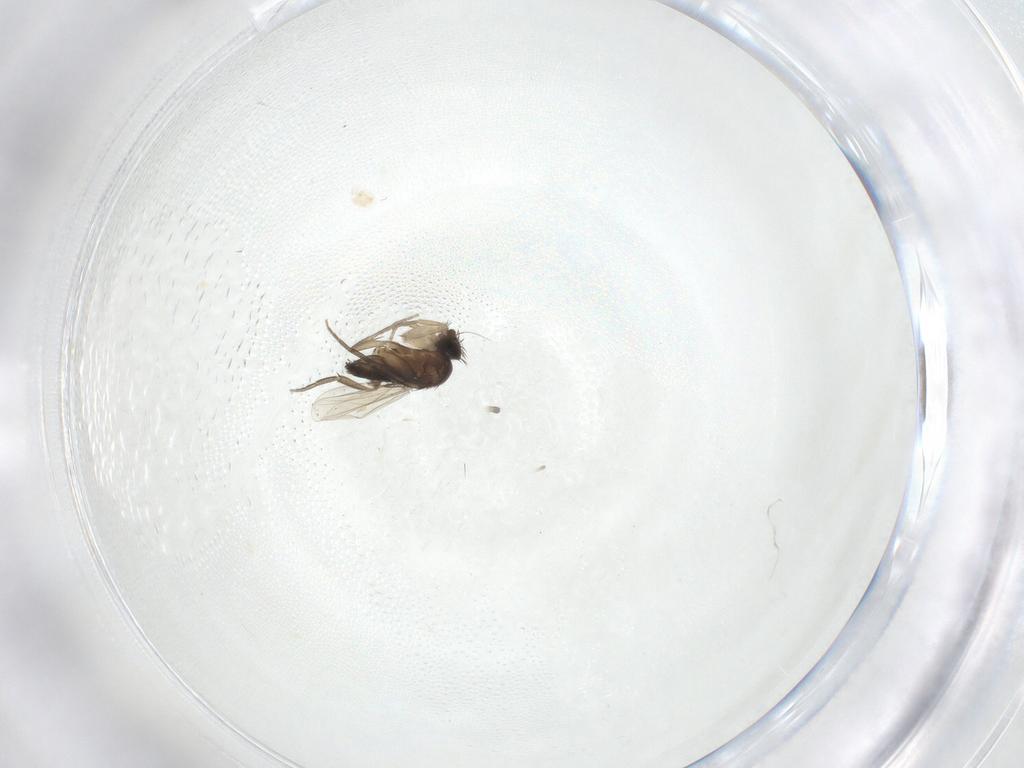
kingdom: Animalia
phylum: Arthropoda
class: Insecta
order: Diptera
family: Phoridae
